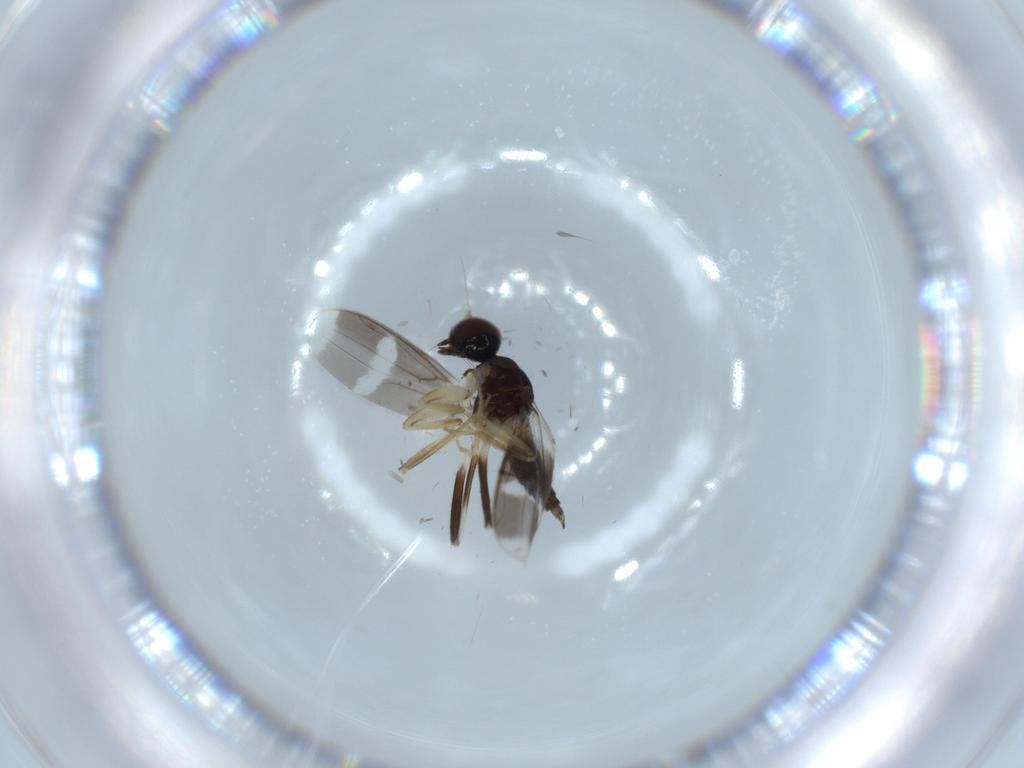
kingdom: Animalia
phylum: Arthropoda
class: Insecta
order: Diptera
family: Hybotidae
